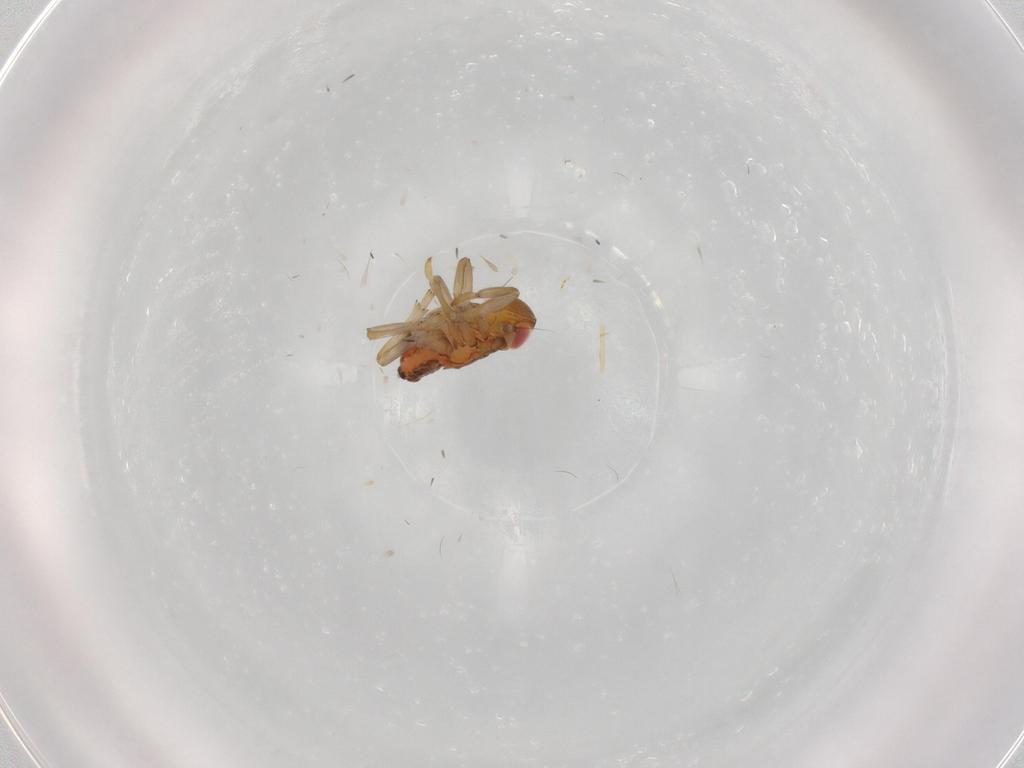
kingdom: Animalia
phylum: Arthropoda
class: Insecta
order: Hemiptera
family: Issidae
